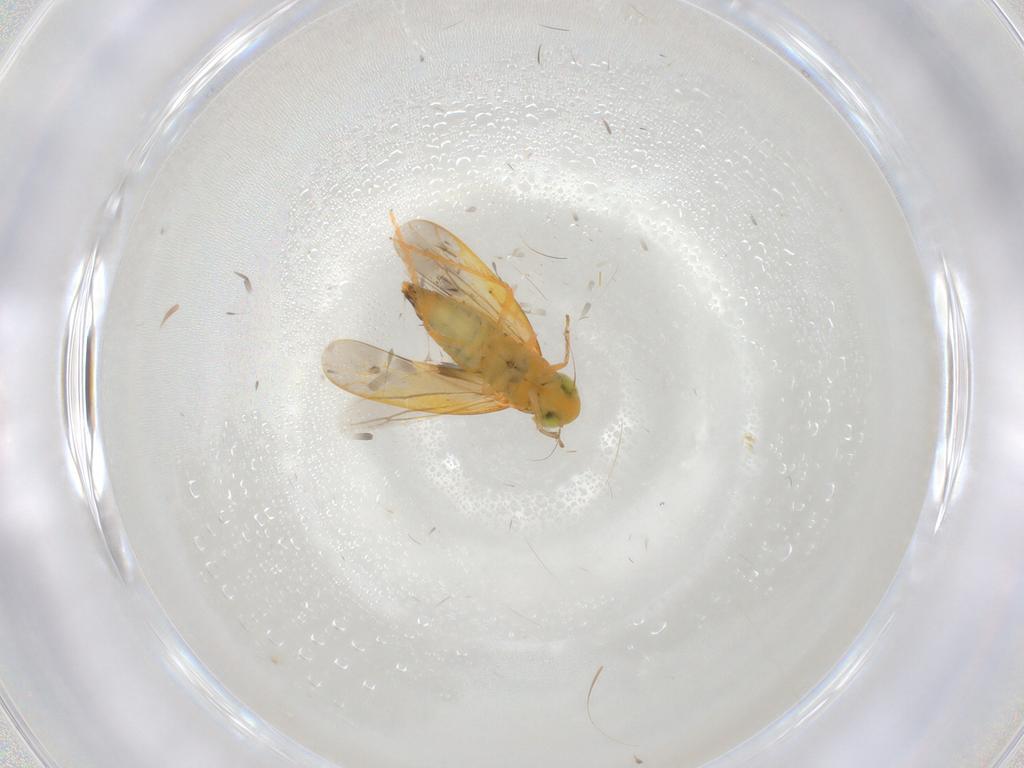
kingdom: Animalia
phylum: Arthropoda
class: Insecta
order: Hemiptera
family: Cicadellidae
